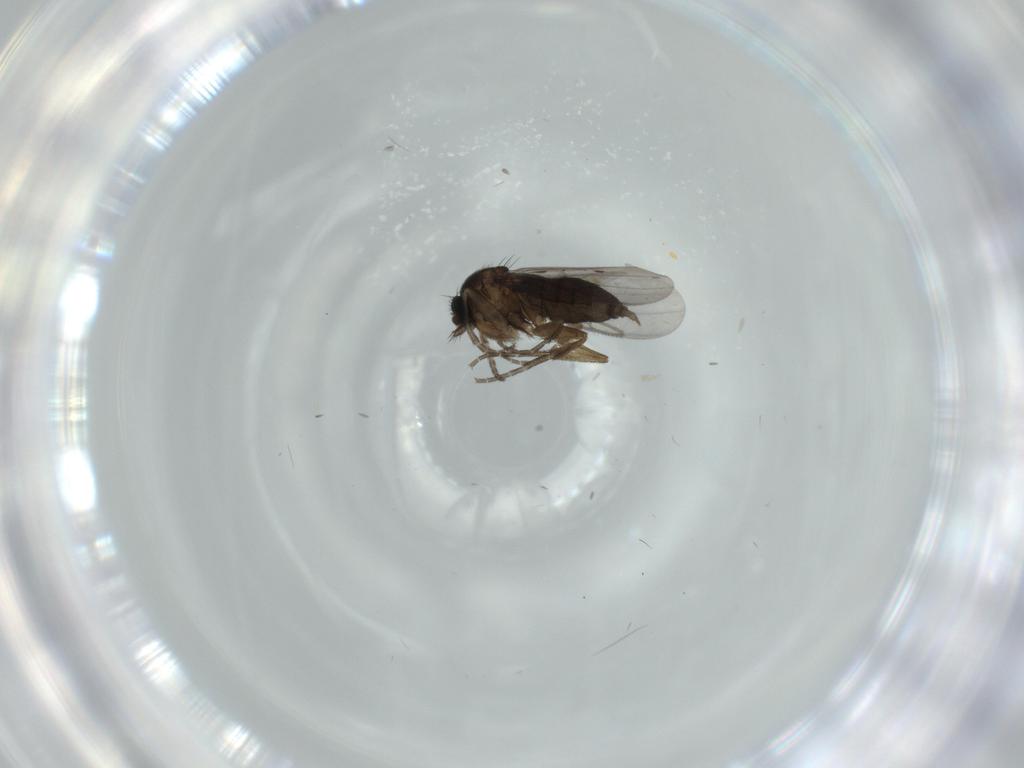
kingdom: Animalia
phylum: Arthropoda
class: Insecta
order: Diptera
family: Phoridae
